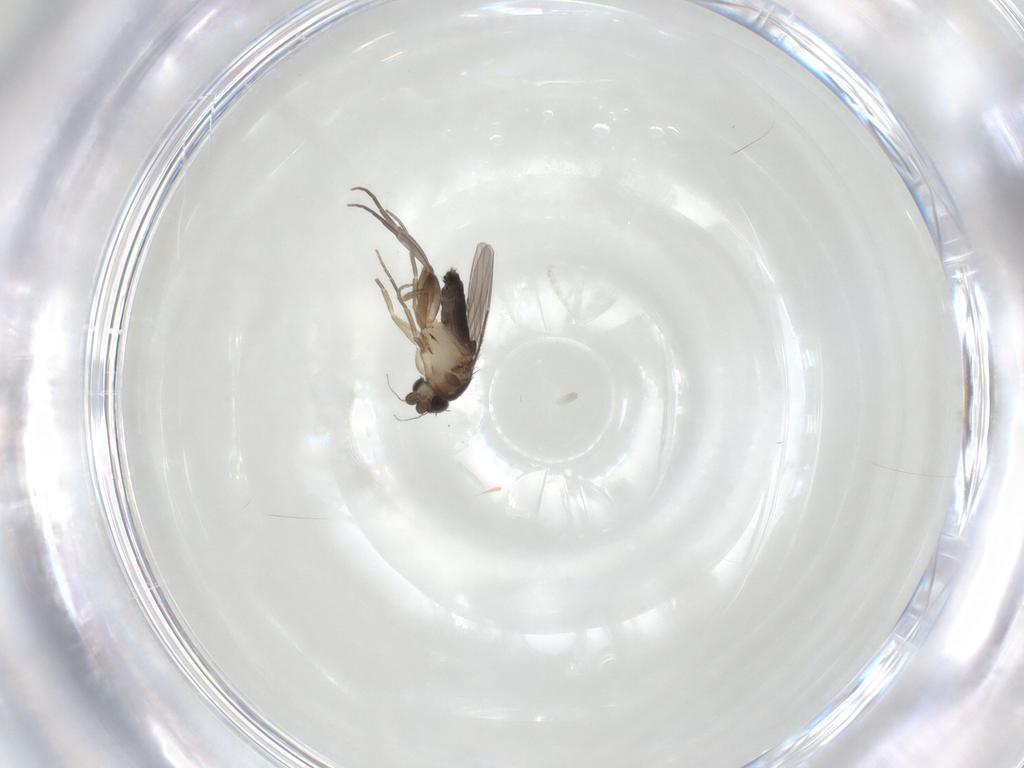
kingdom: Animalia
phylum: Arthropoda
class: Insecta
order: Diptera
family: Phoridae
